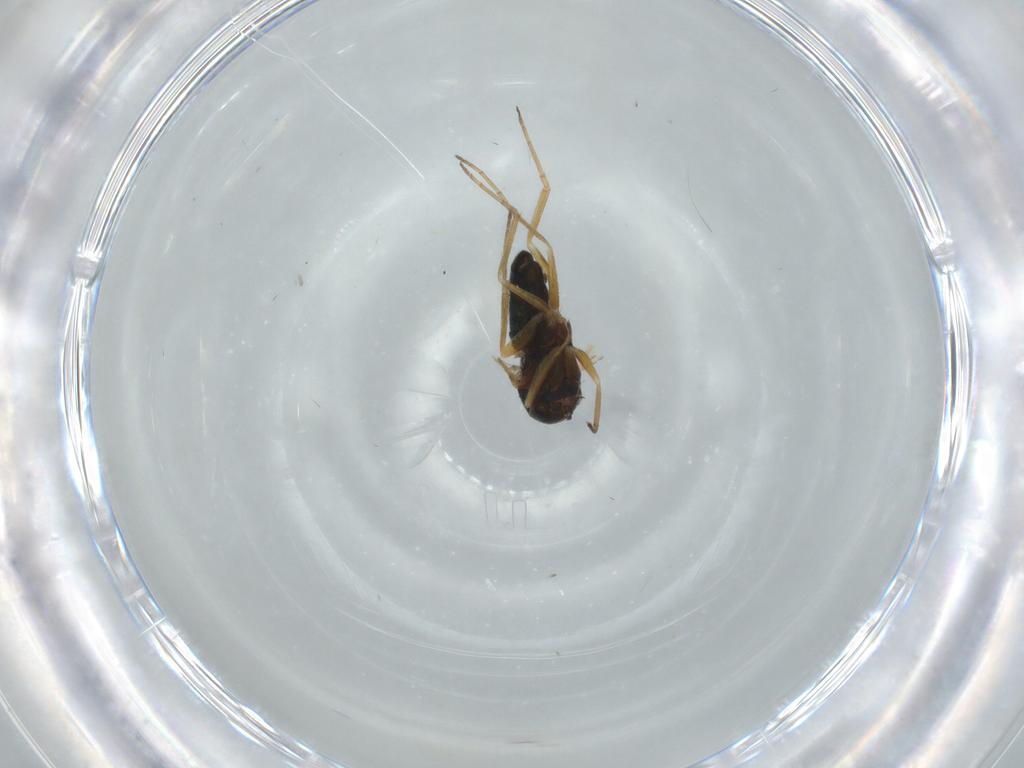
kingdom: Animalia
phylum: Arthropoda
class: Insecta
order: Diptera
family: Dolichopodidae
